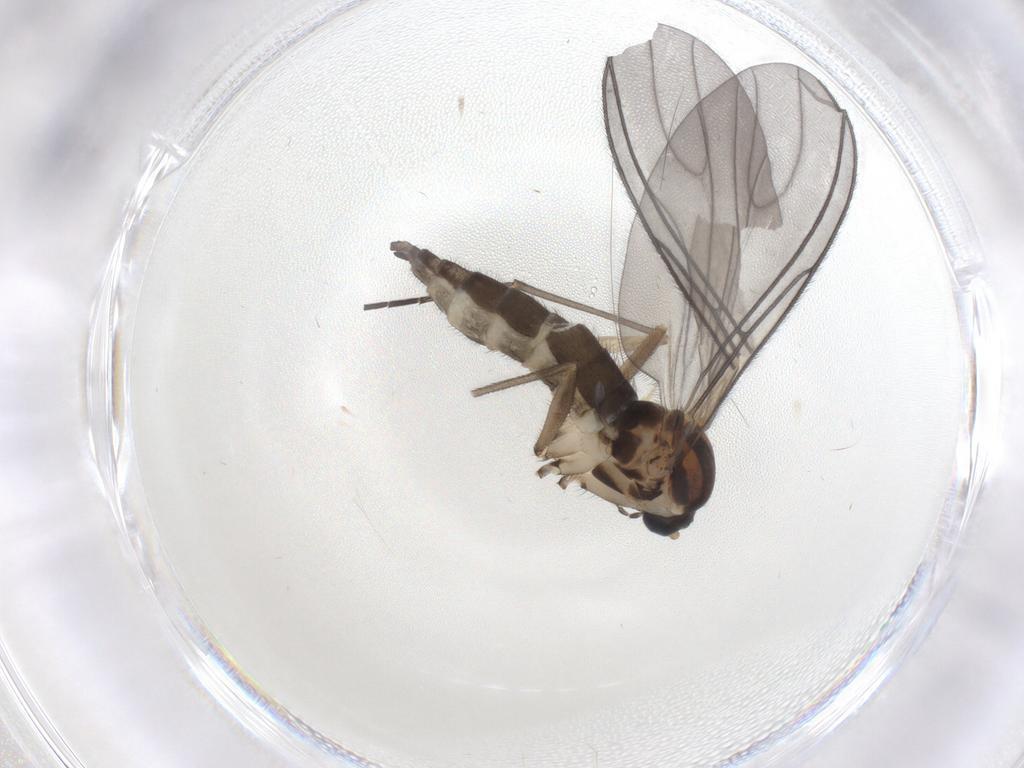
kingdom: Animalia
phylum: Arthropoda
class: Insecta
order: Diptera
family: Sciaridae
